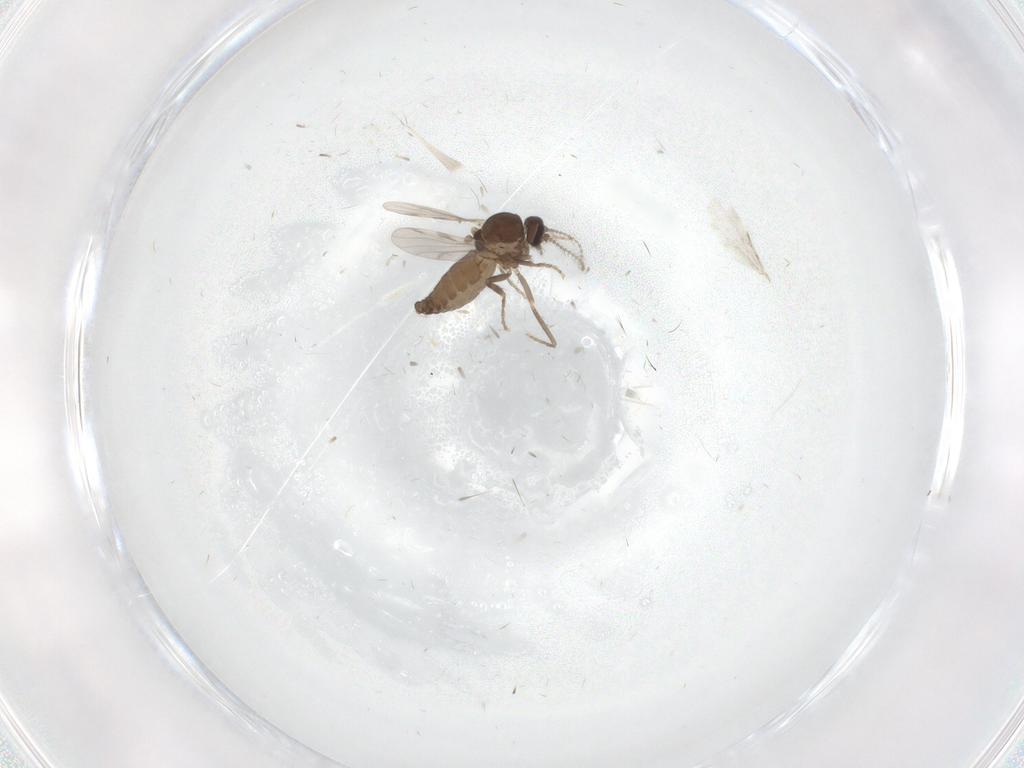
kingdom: Animalia
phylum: Arthropoda
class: Insecta
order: Diptera
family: Ceratopogonidae
